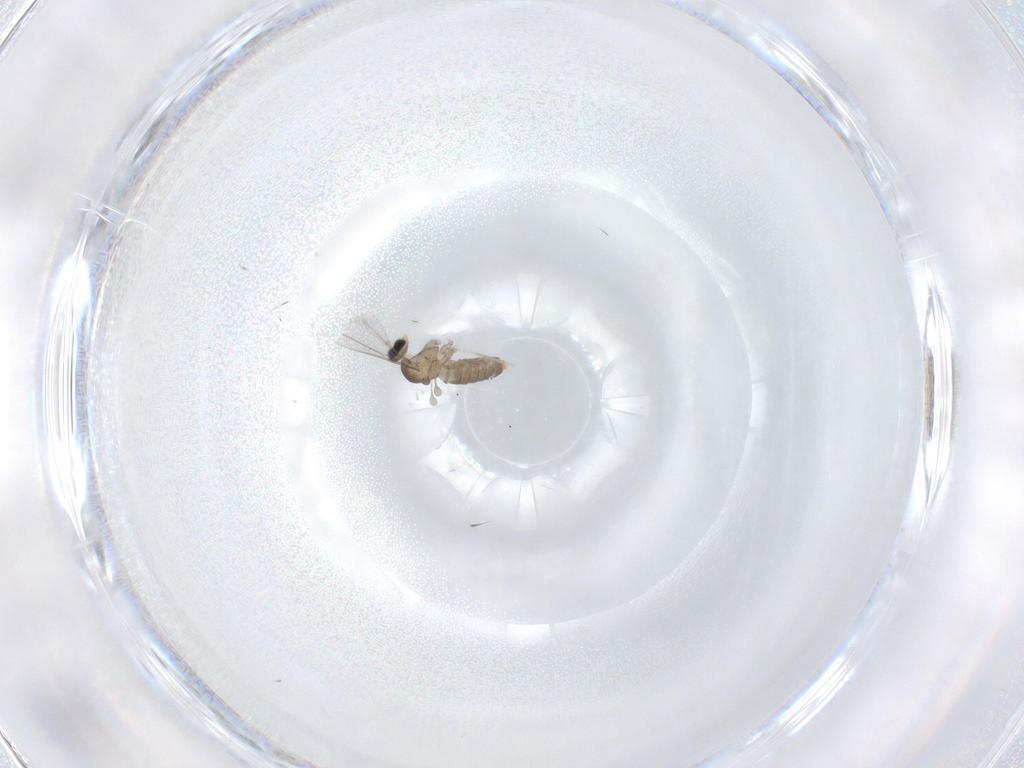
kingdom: Animalia
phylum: Arthropoda
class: Insecta
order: Diptera
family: Cecidomyiidae
